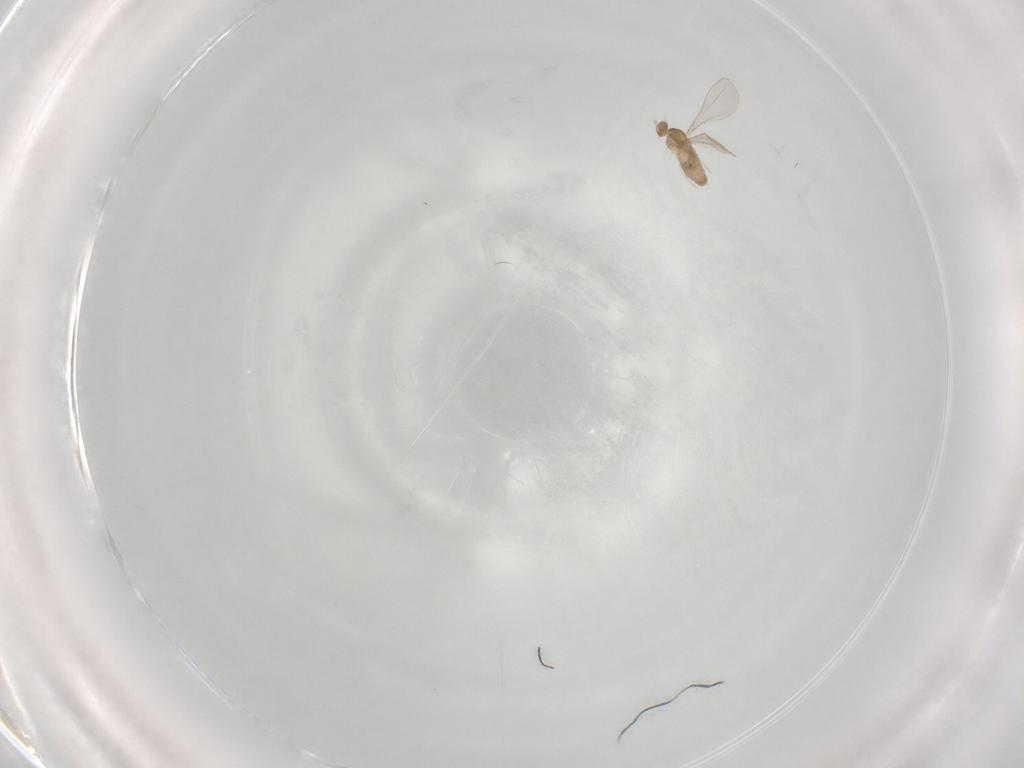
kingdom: Animalia
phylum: Arthropoda
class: Insecta
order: Diptera
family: Cecidomyiidae
